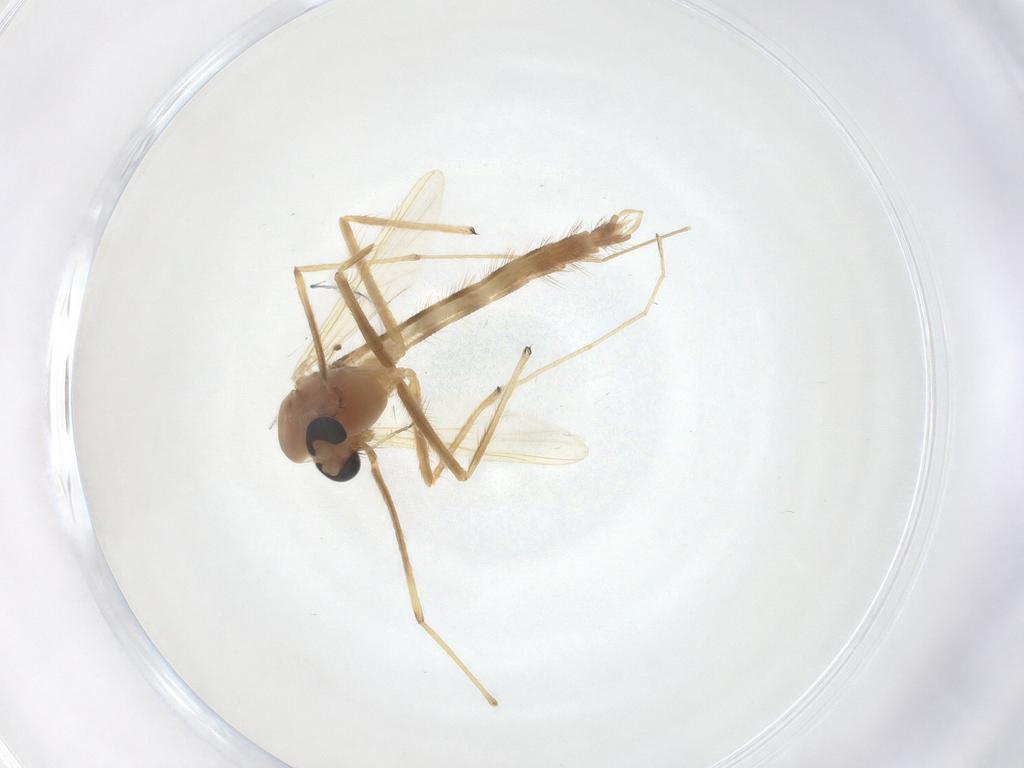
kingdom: Animalia
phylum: Arthropoda
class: Insecta
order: Diptera
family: Chironomidae
